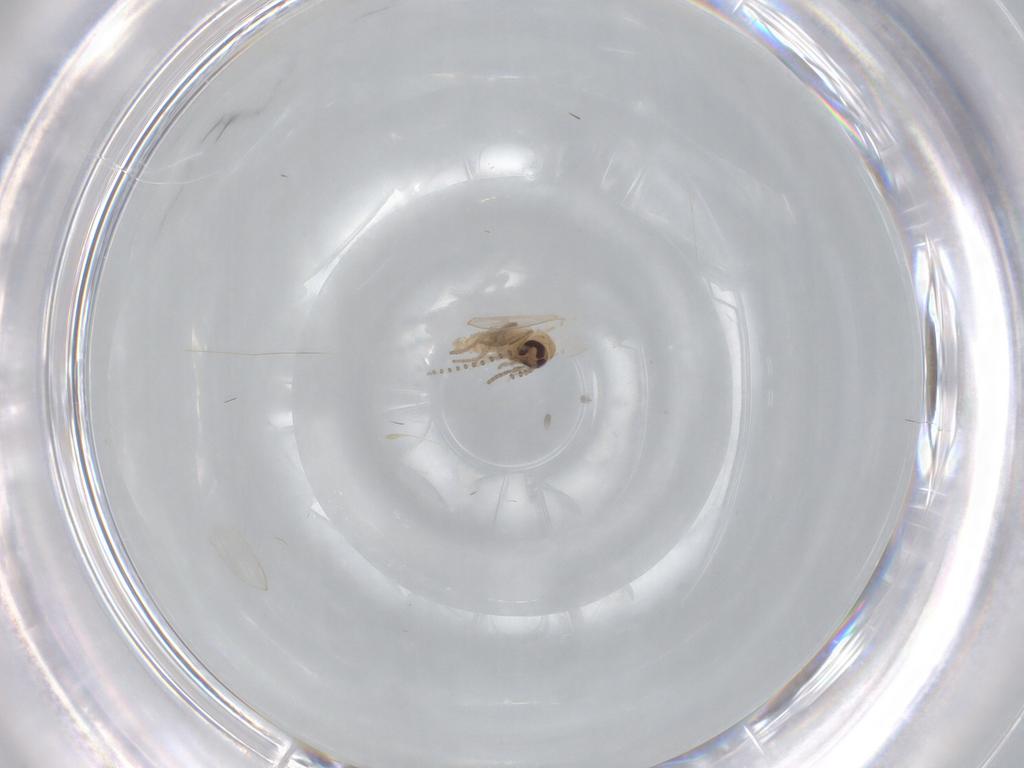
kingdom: Animalia
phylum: Arthropoda
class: Insecta
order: Diptera
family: Psychodidae
